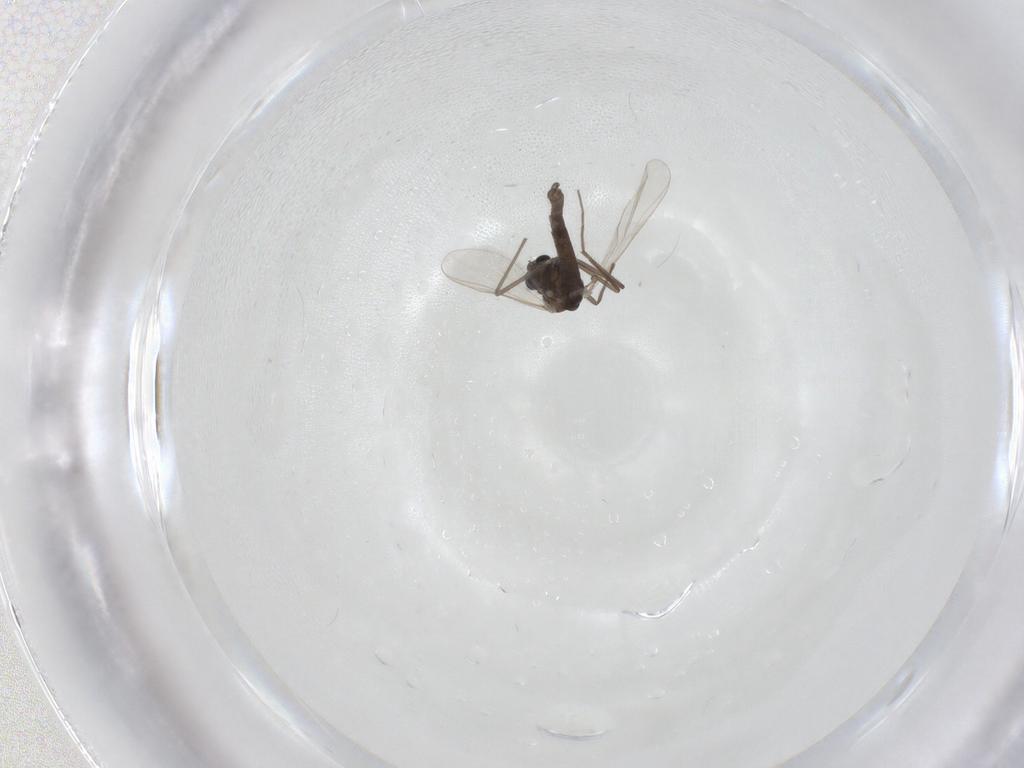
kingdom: Animalia
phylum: Arthropoda
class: Insecta
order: Diptera
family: Chironomidae
